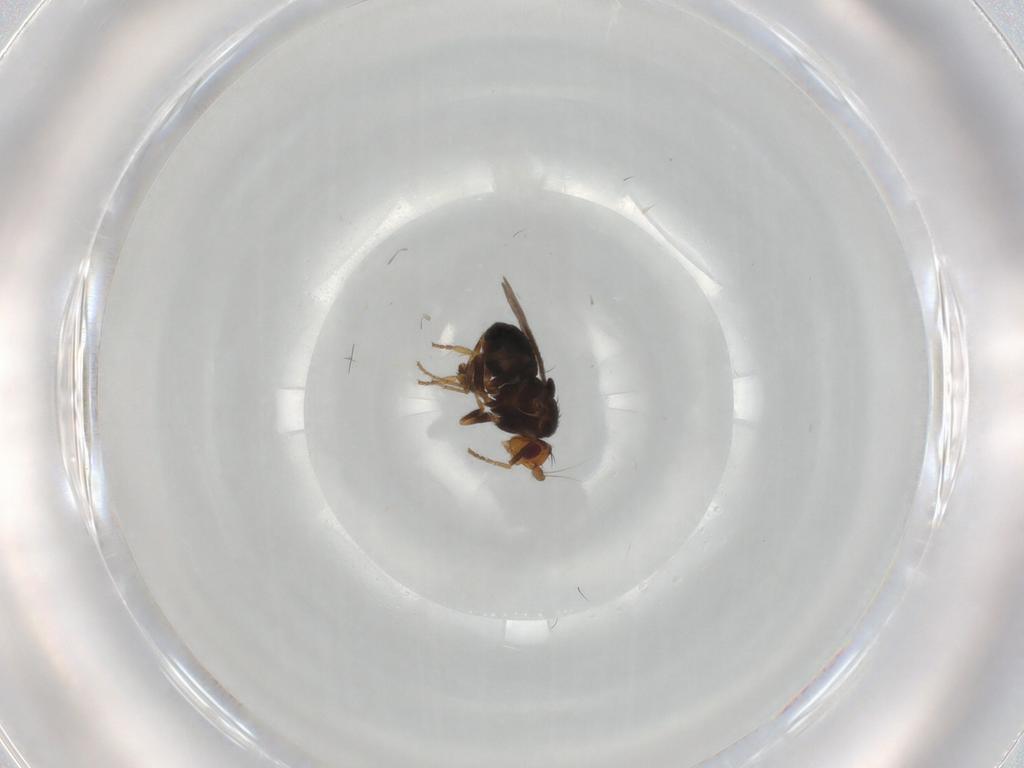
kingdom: Animalia
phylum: Arthropoda
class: Insecta
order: Diptera
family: Sphaeroceridae
